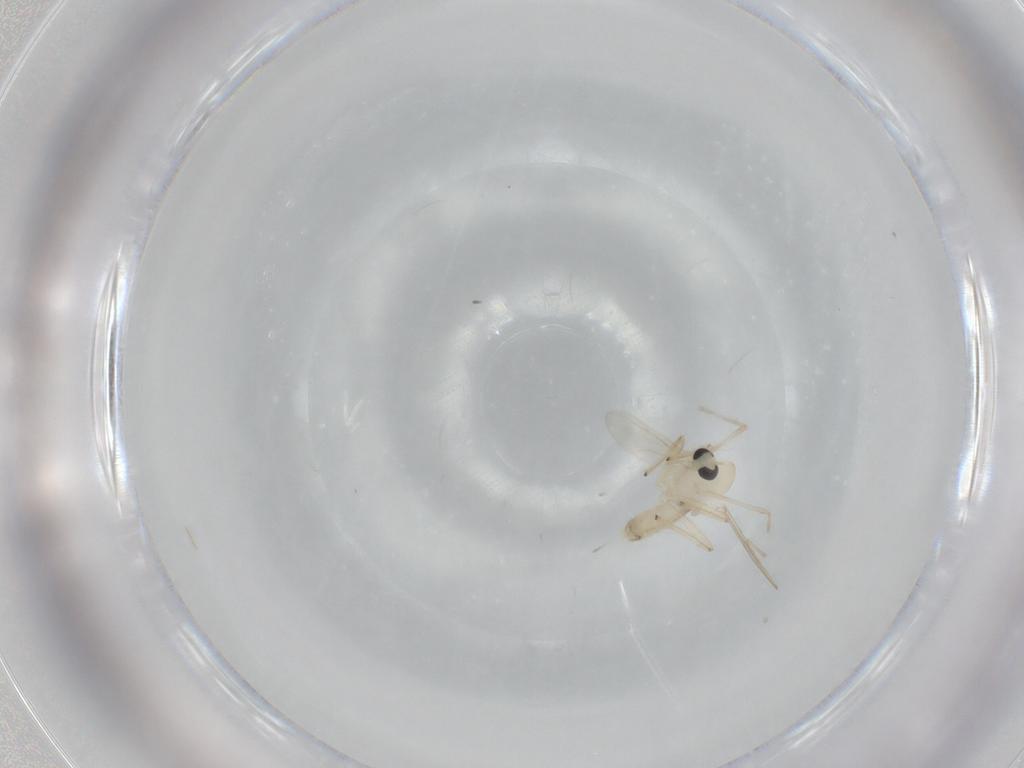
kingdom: Animalia
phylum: Arthropoda
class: Insecta
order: Diptera
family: Chironomidae
